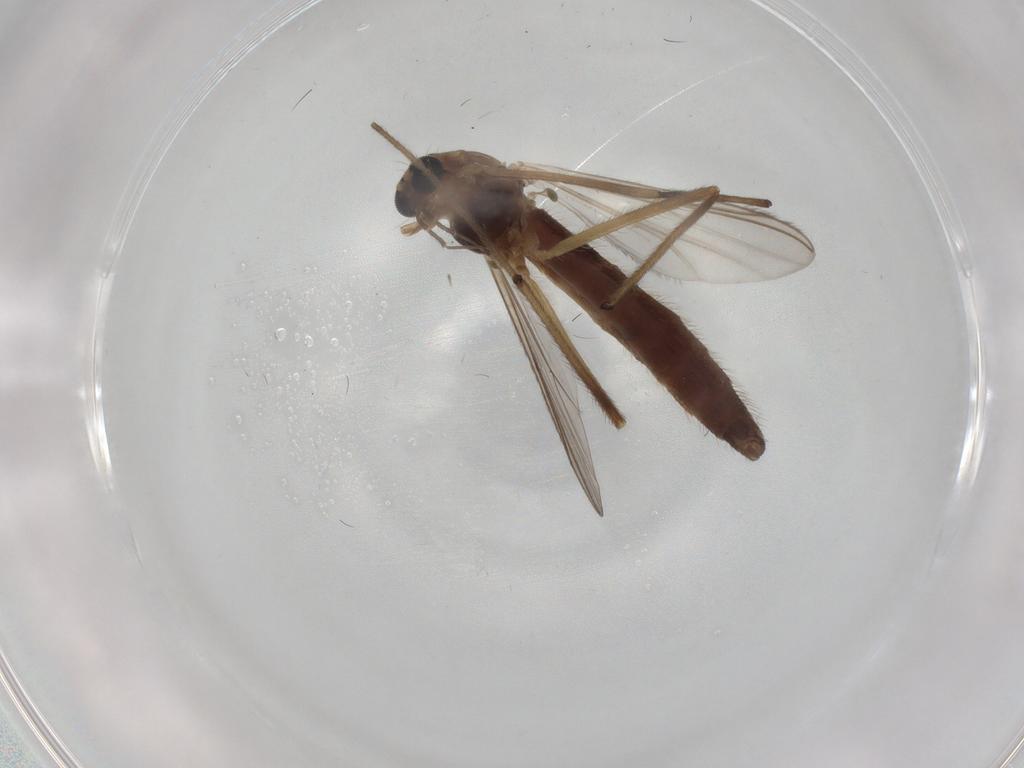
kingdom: Animalia
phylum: Arthropoda
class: Insecta
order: Diptera
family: Chironomidae
